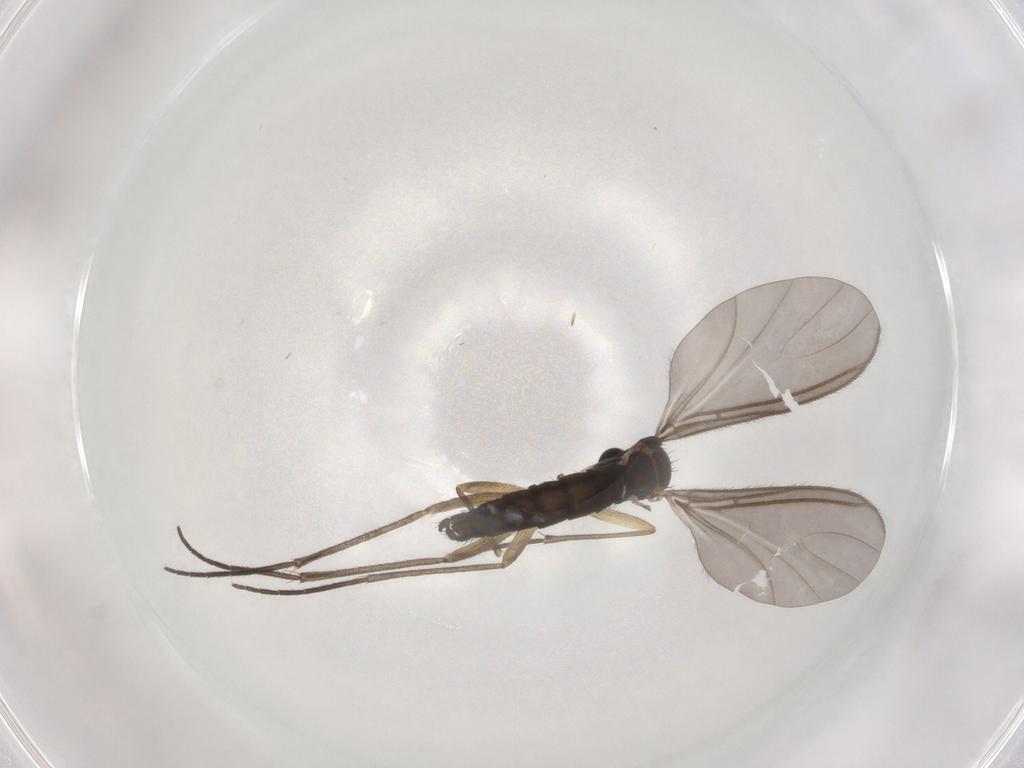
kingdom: Animalia
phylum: Arthropoda
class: Insecta
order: Diptera
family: Sciaridae
